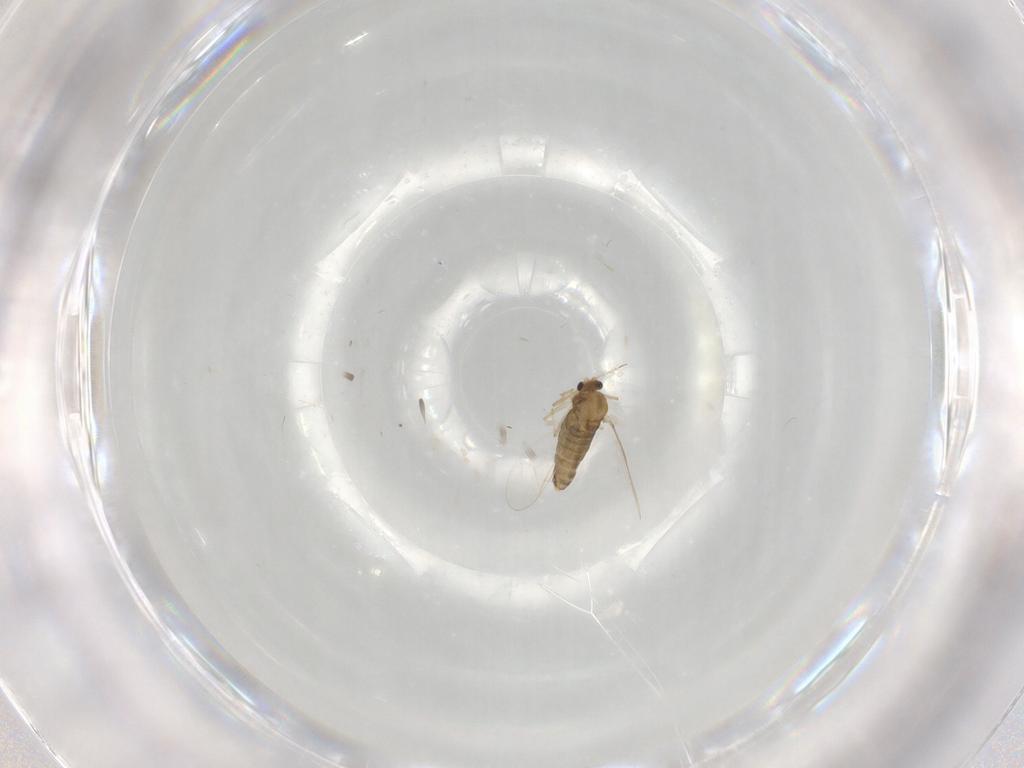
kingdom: Animalia
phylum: Arthropoda
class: Insecta
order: Diptera
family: Chironomidae
